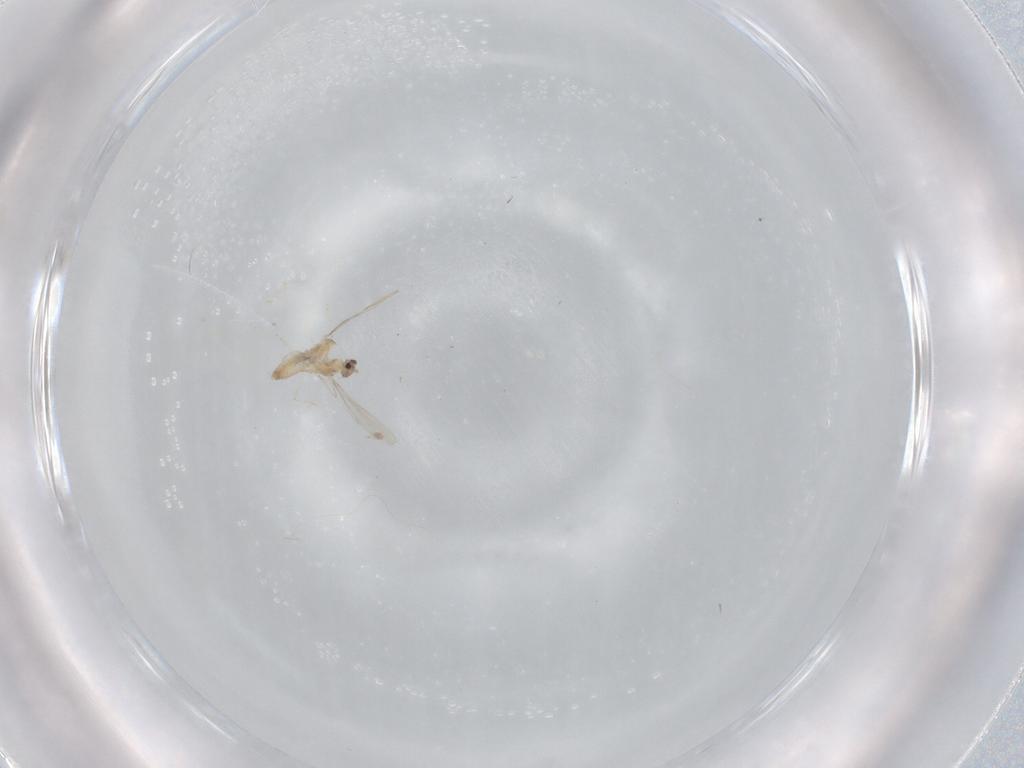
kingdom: Animalia
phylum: Arthropoda
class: Insecta
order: Diptera
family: Cecidomyiidae
